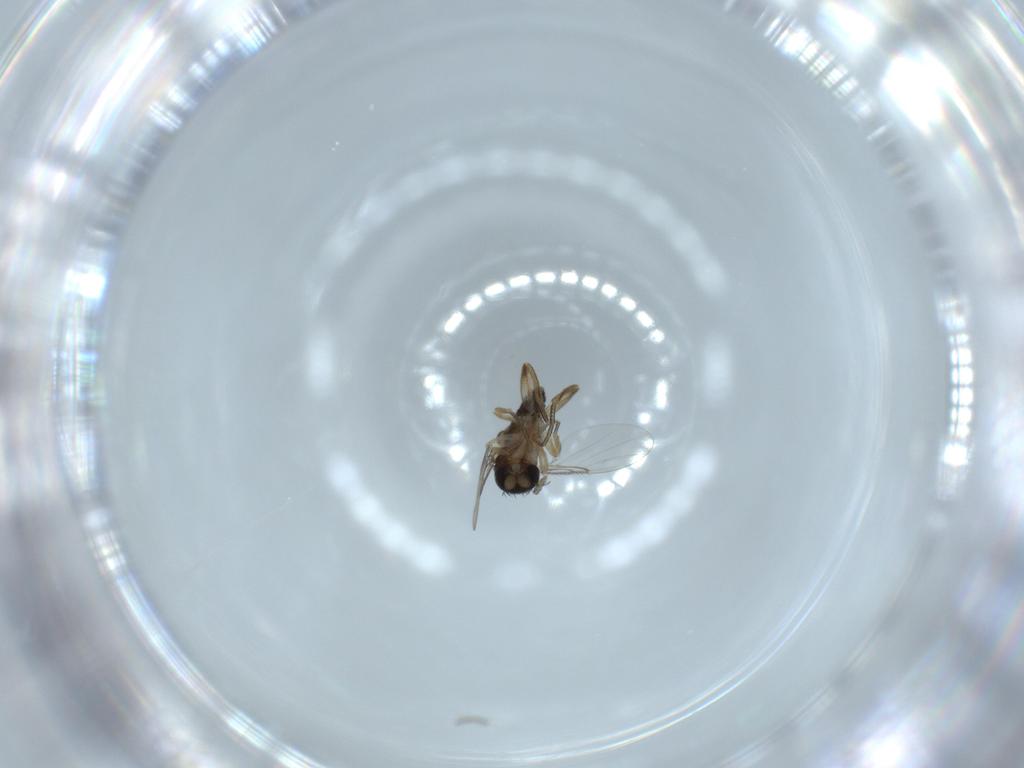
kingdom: Animalia
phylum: Arthropoda
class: Insecta
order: Diptera
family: Phoridae
